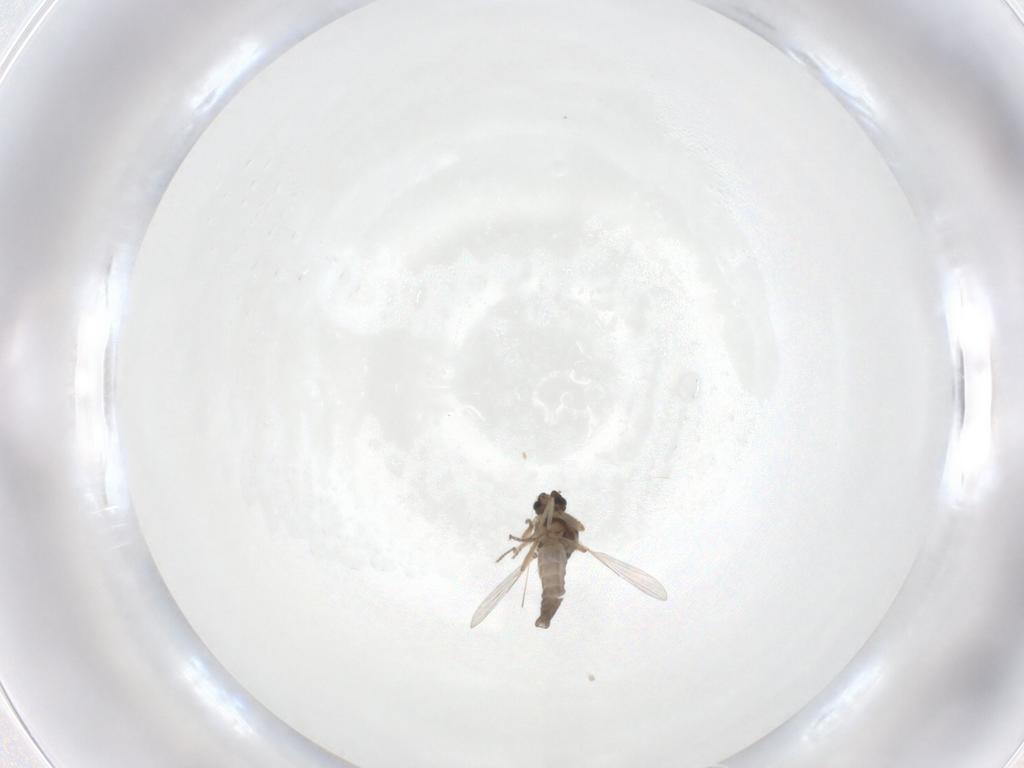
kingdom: Animalia
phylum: Arthropoda
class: Insecta
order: Diptera
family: Ceratopogonidae
